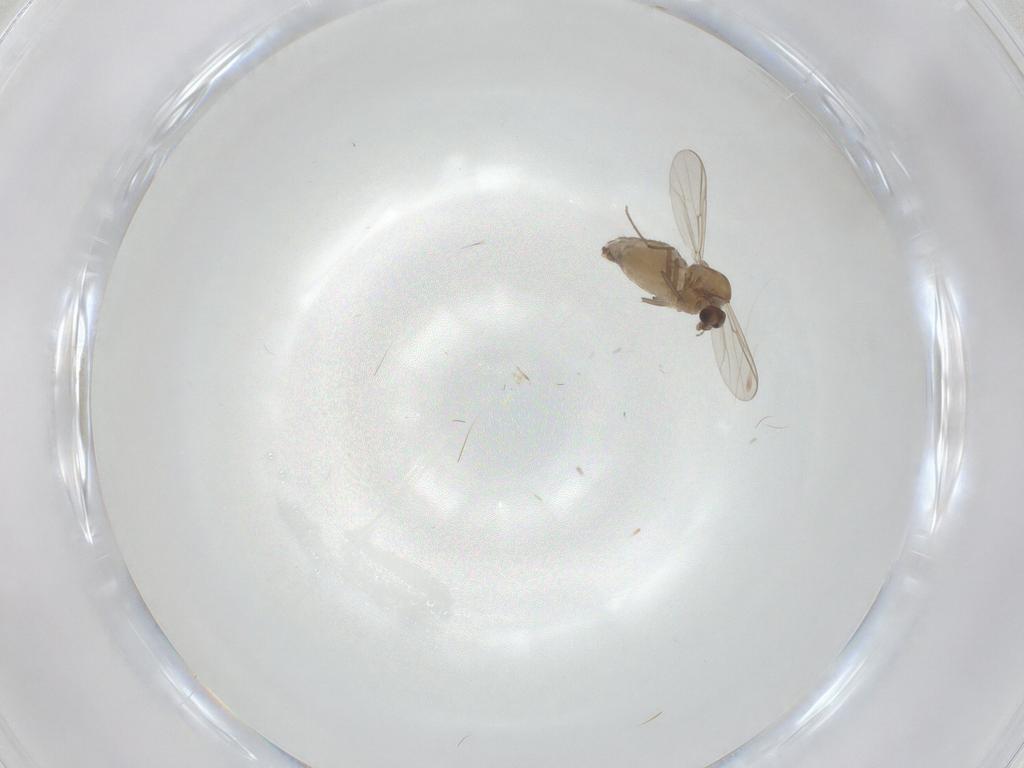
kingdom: Animalia
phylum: Arthropoda
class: Insecta
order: Diptera
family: Chironomidae
